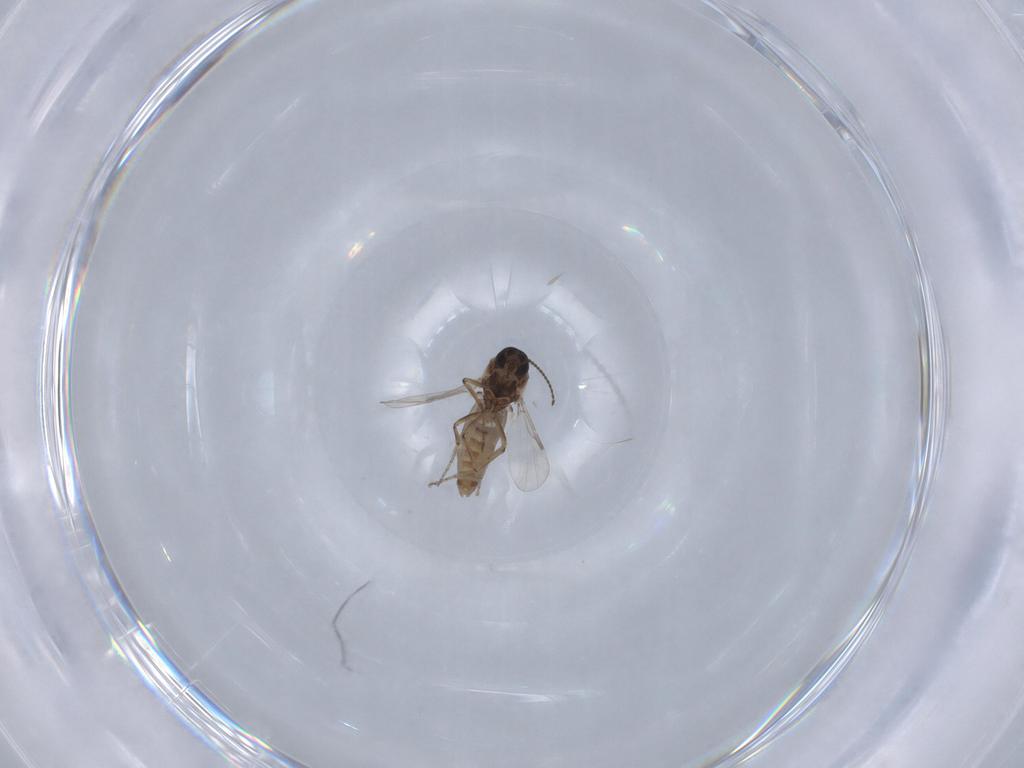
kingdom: Animalia
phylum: Arthropoda
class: Insecta
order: Diptera
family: Ceratopogonidae
